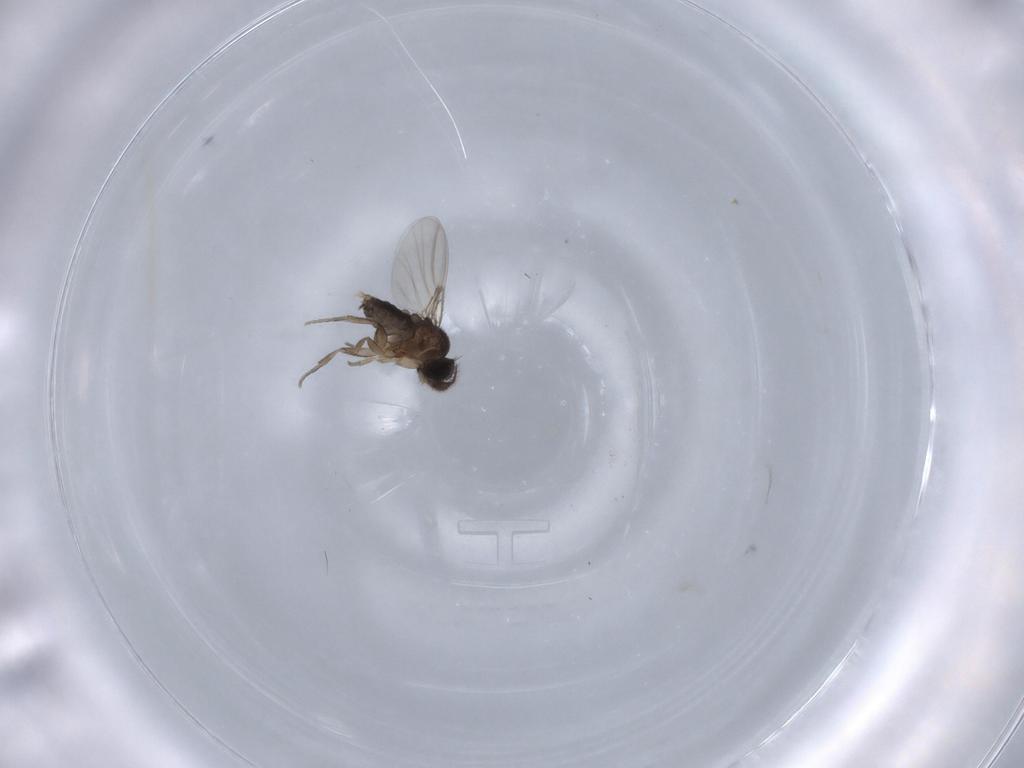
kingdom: Animalia
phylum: Arthropoda
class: Insecta
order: Diptera
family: Phoridae
